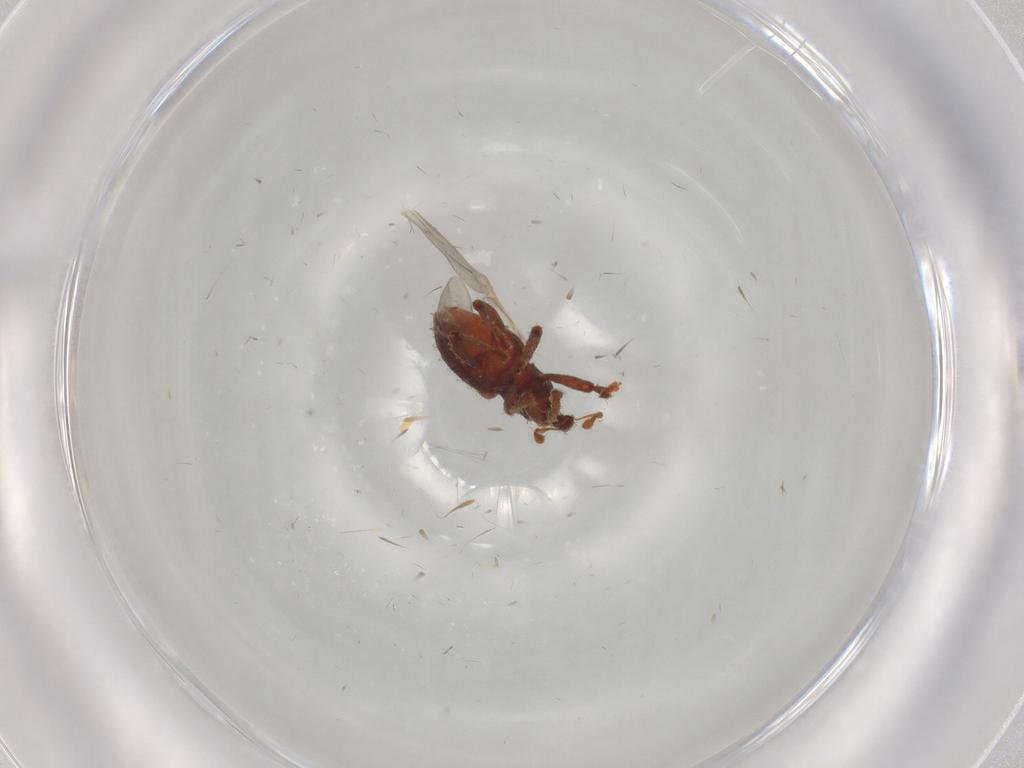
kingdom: Animalia
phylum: Arthropoda
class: Insecta
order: Coleoptera
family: Curculionidae
